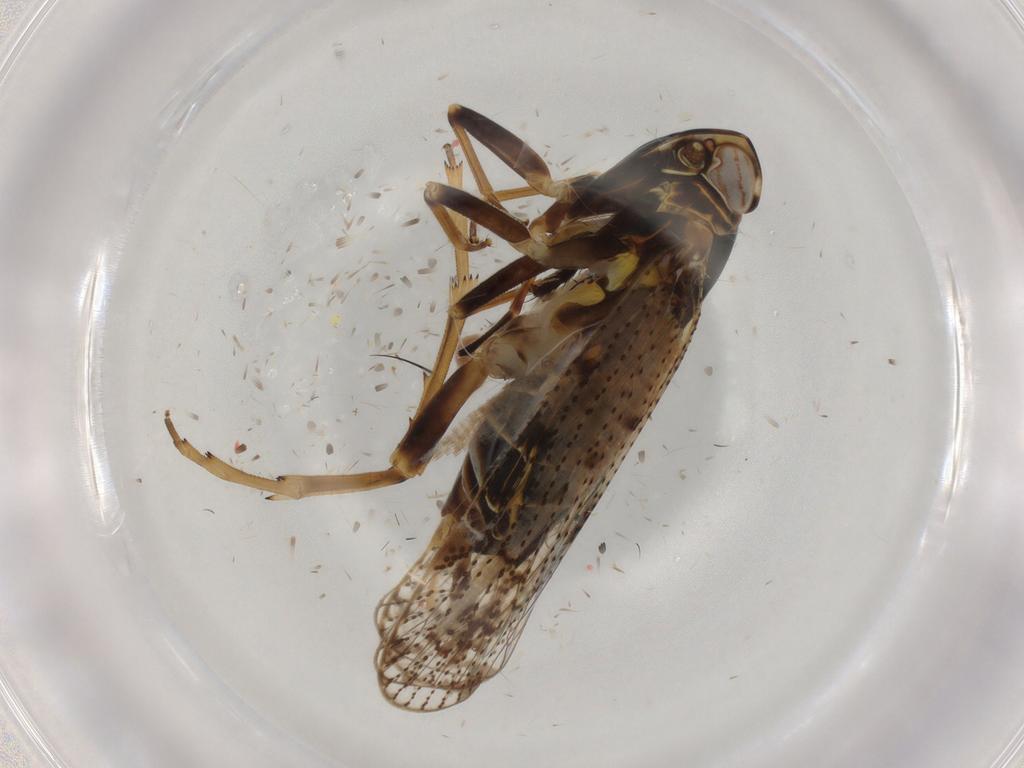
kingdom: Animalia
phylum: Arthropoda
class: Insecta
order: Hemiptera
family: Cixiidae
